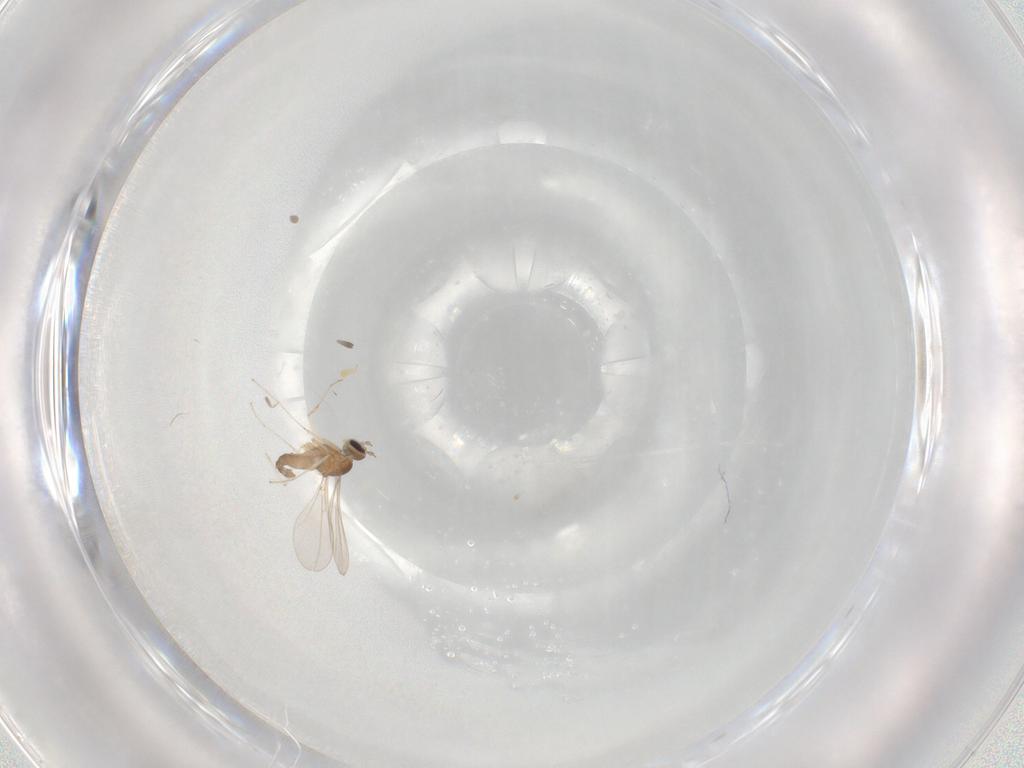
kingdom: Animalia
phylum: Arthropoda
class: Insecta
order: Diptera
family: Cecidomyiidae
